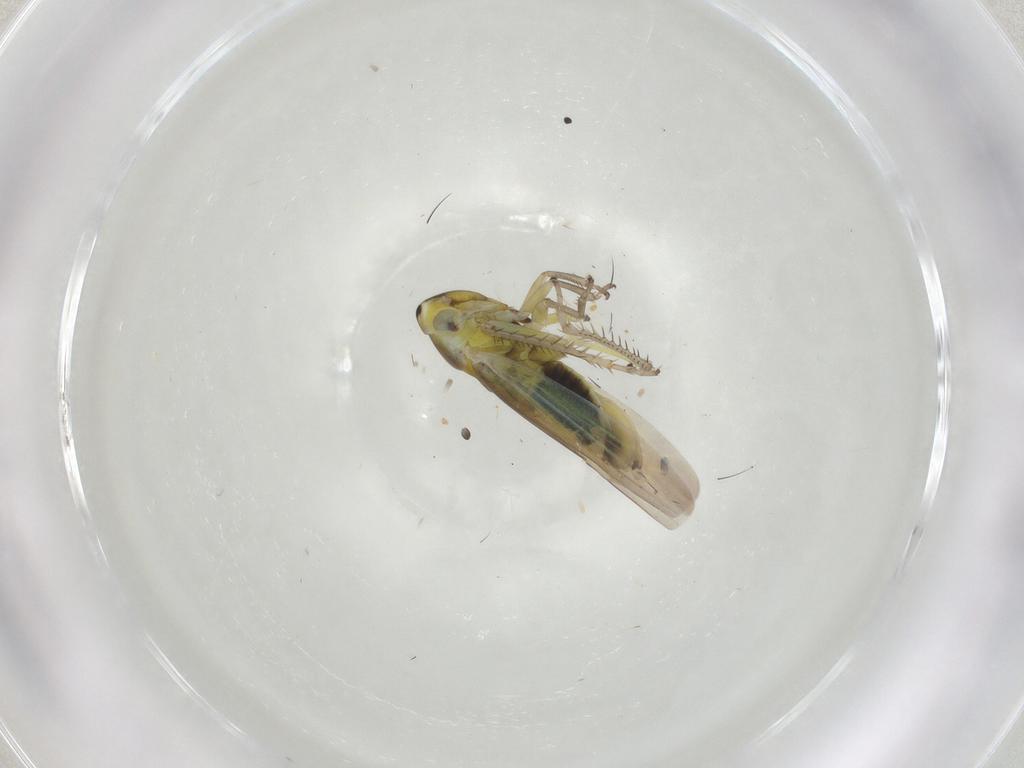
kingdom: Animalia
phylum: Arthropoda
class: Insecta
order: Hemiptera
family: Cicadellidae
